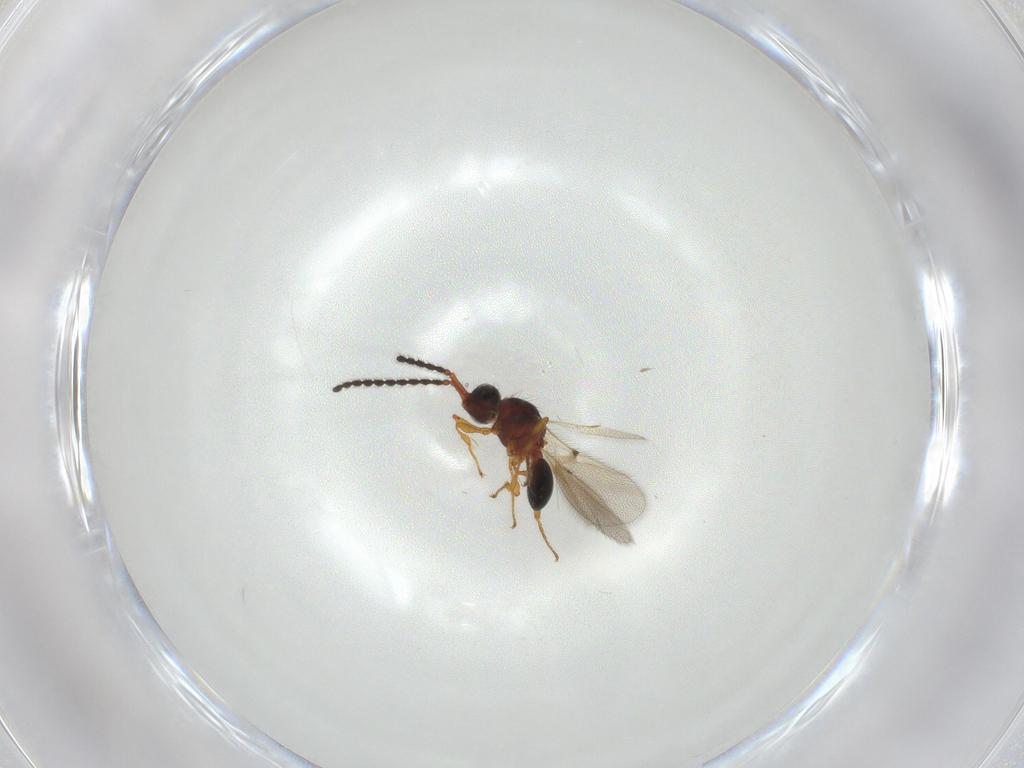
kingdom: Animalia
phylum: Arthropoda
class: Insecta
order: Hymenoptera
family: Diapriidae
